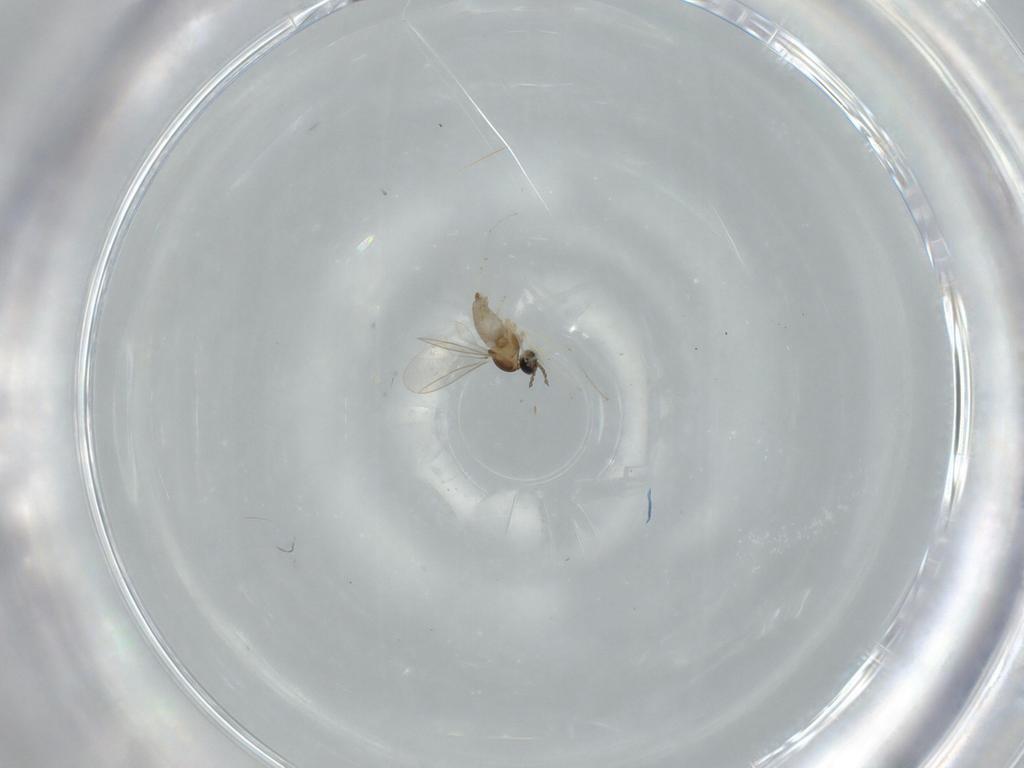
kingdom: Animalia
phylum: Arthropoda
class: Insecta
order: Diptera
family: Cecidomyiidae
